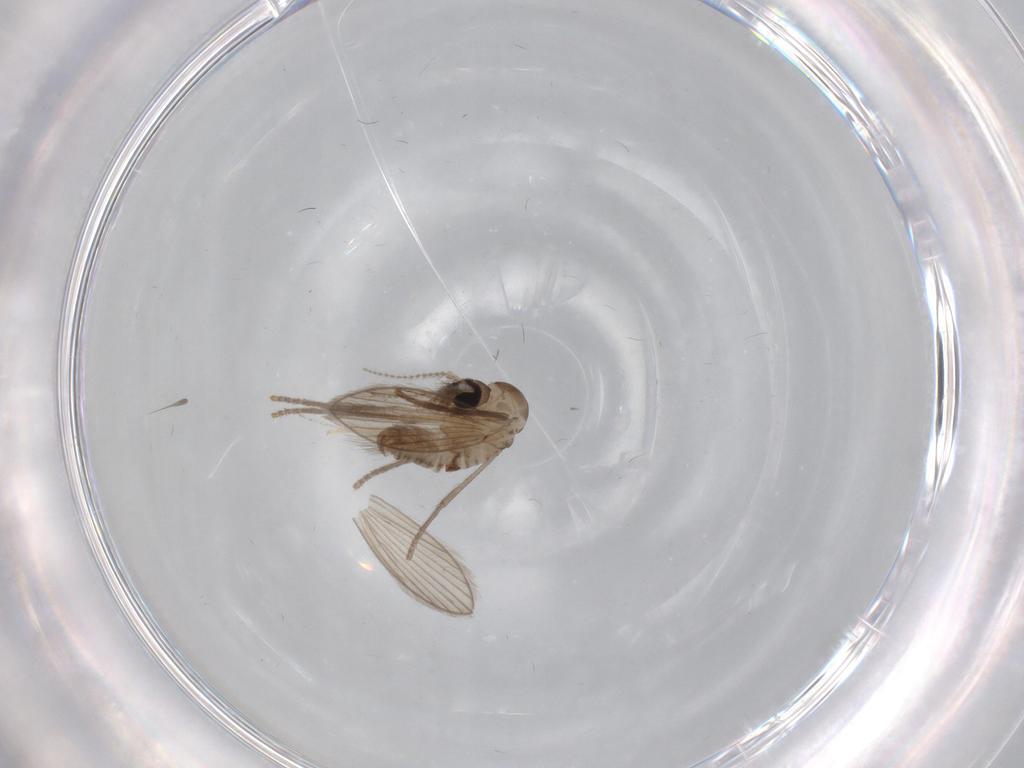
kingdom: Animalia
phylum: Arthropoda
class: Insecta
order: Diptera
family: Psychodidae
